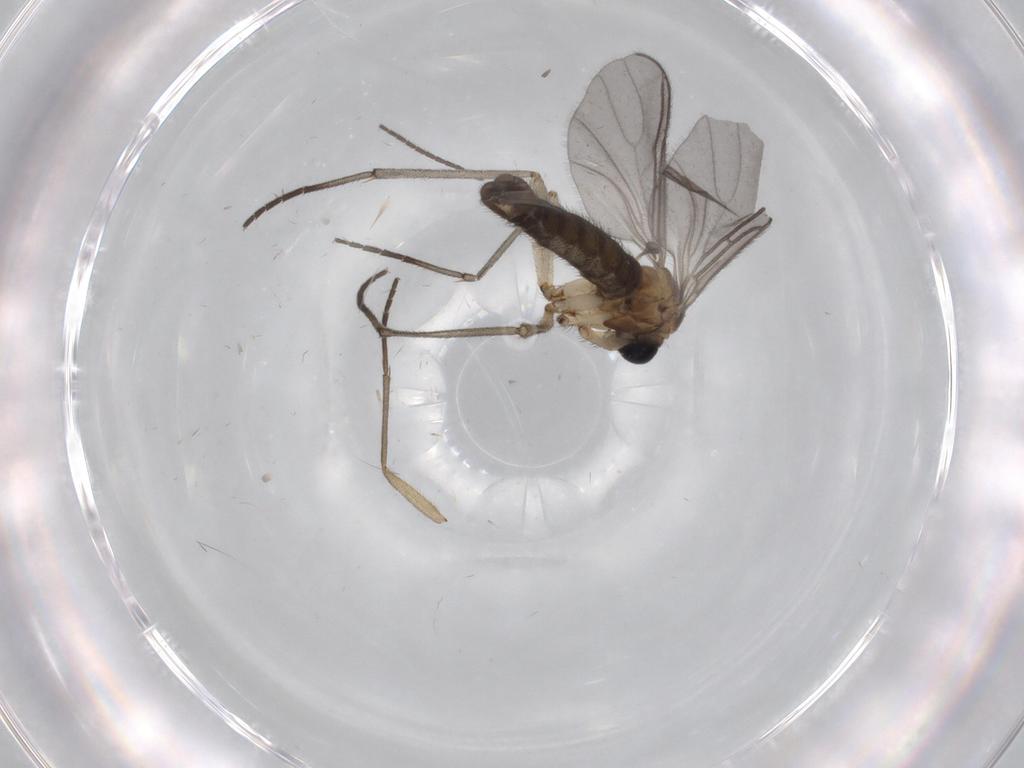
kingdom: Animalia
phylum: Arthropoda
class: Insecta
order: Diptera
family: Sciaridae
